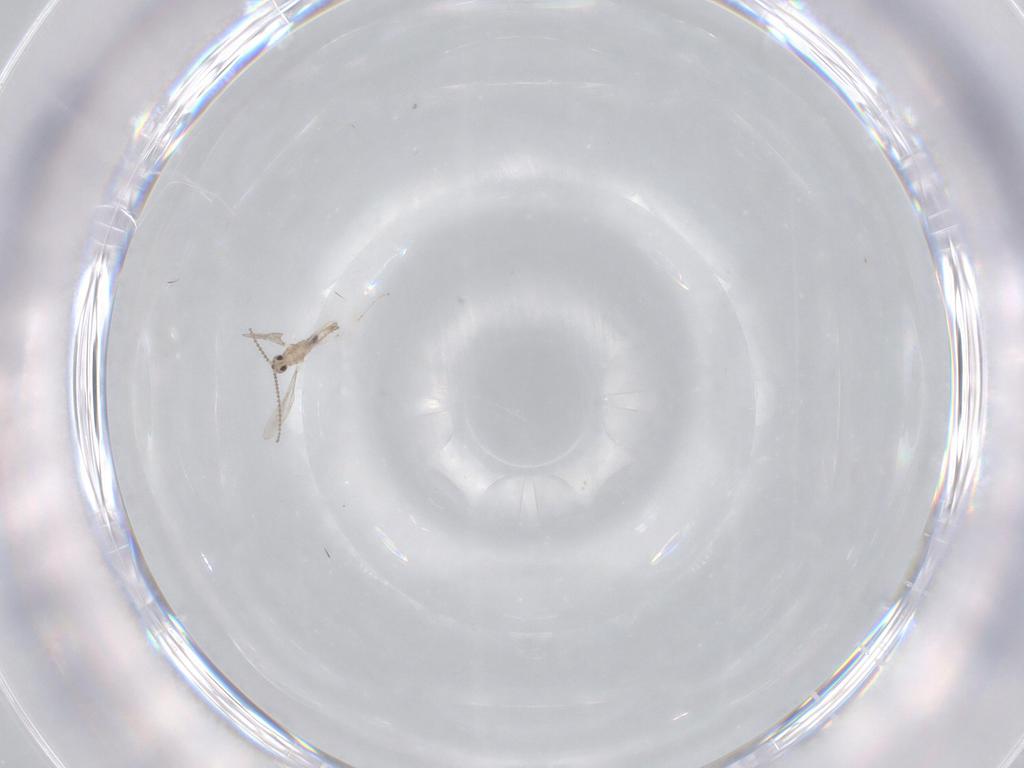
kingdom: Animalia
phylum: Arthropoda
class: Insecta
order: Diptera
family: Cecidomyiidae
